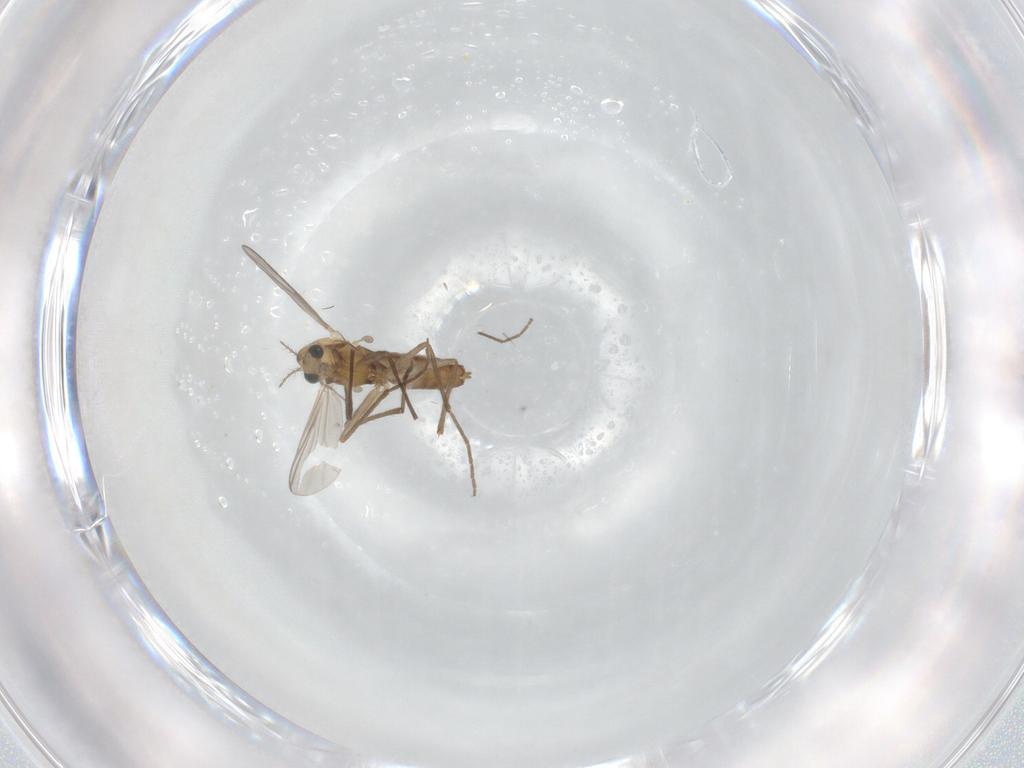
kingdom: Animalia
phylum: Arthropoda
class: Insecta
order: Diptera
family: Chironomidae
